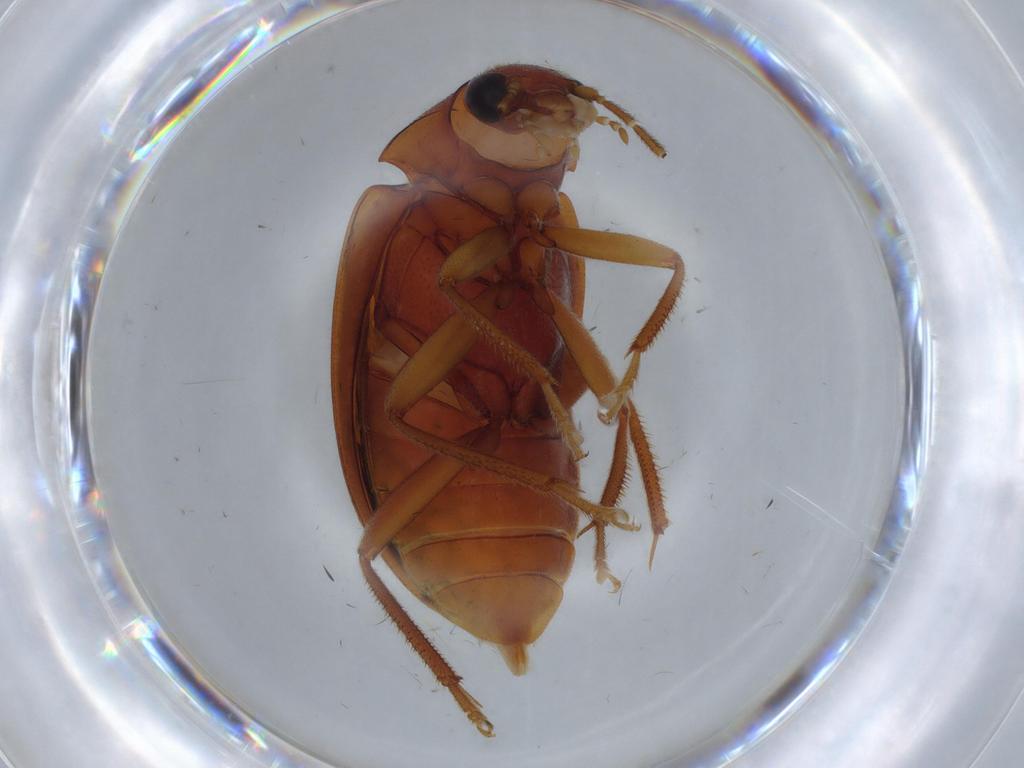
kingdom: Animalia
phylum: Arthropoda
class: Insecta
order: Coleoptera
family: Ptilodactylidae
